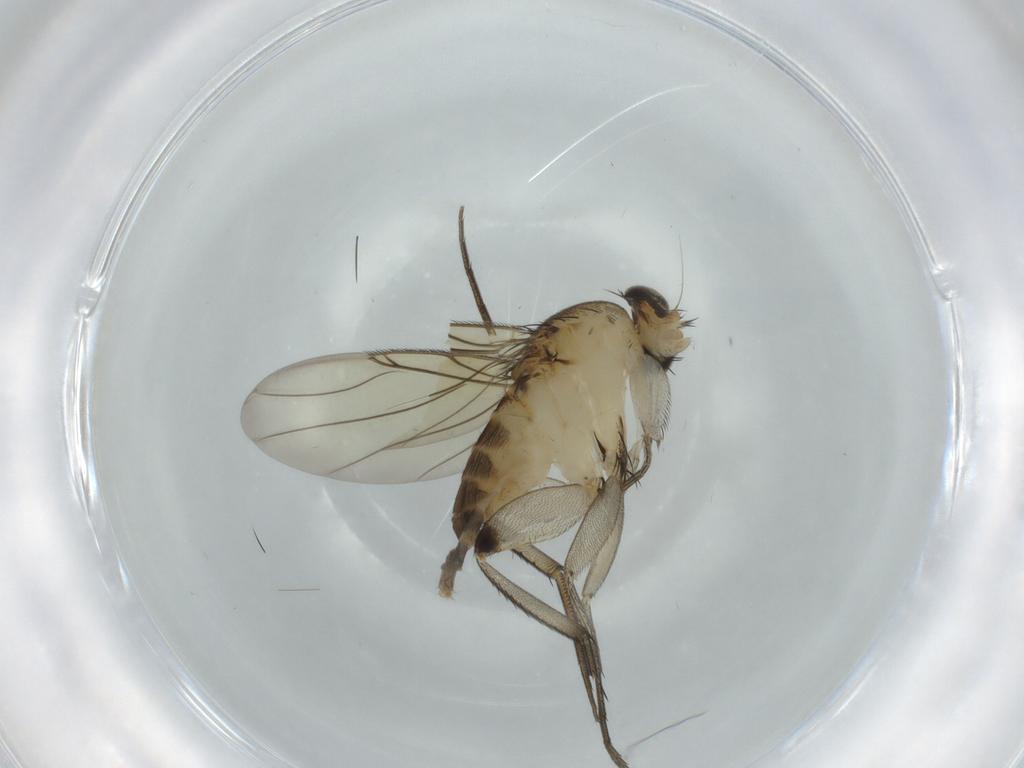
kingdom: Animalia
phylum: Arthropoda
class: Insecta
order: Diptera
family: Phoridae
